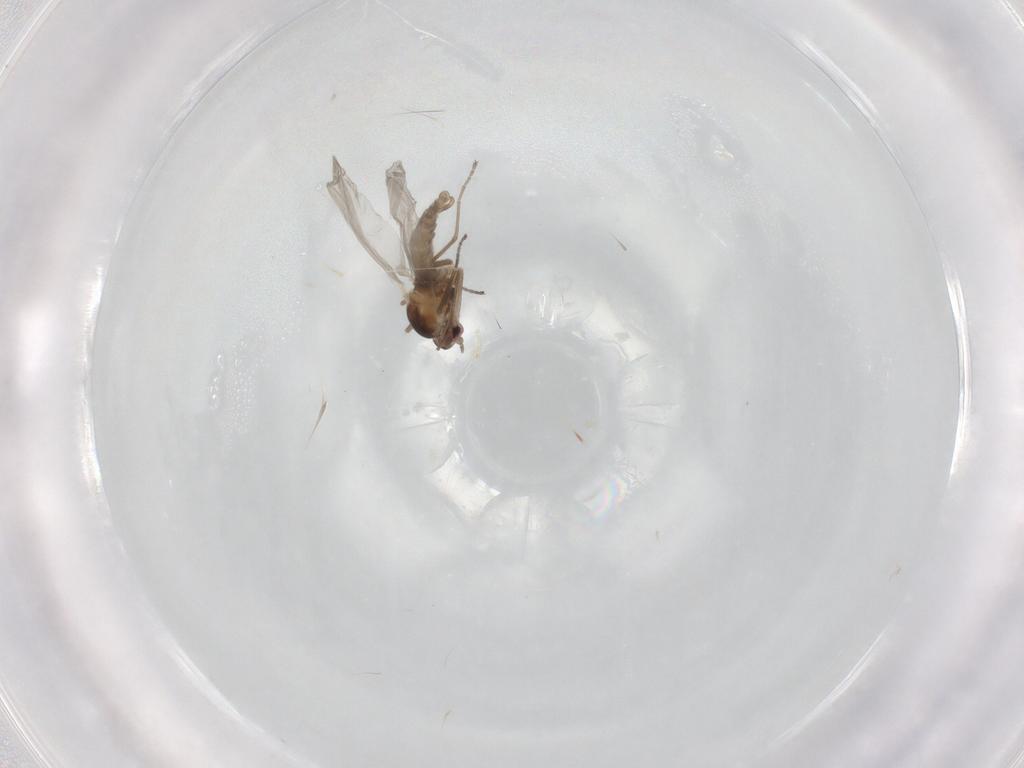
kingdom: Animalia
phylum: Arthropoda
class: Insecta
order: Diptera
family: Cecidomyiidae
